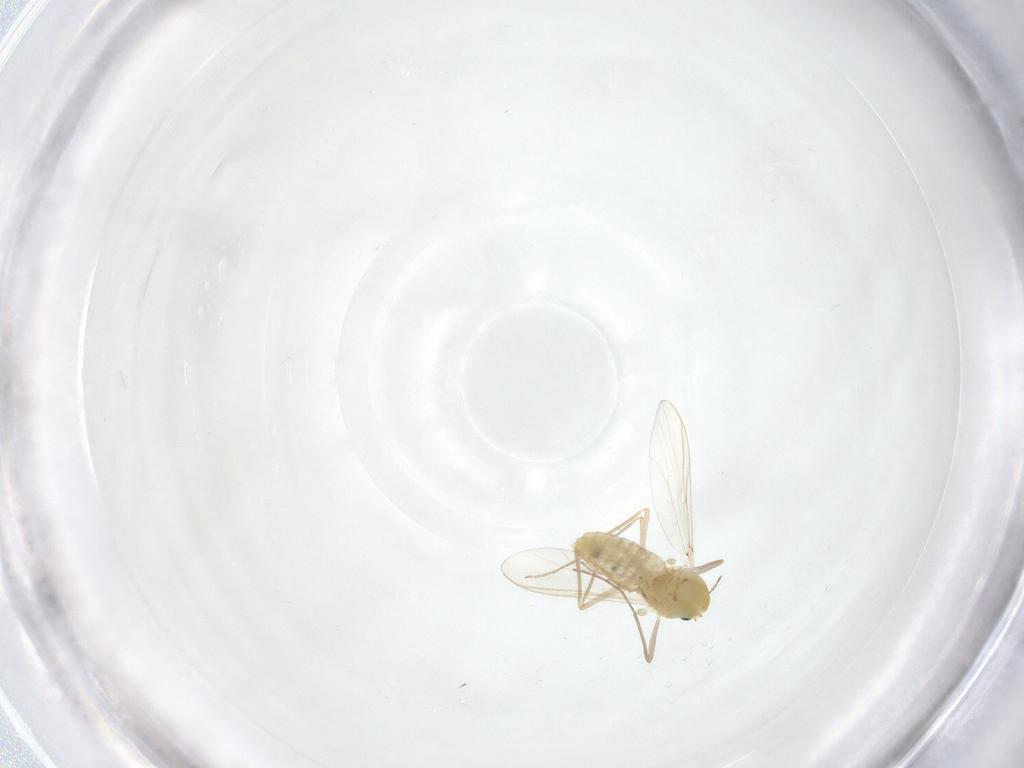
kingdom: Animalia
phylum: Arthropoda
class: Insecta
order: Diptera
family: Chironomidae
